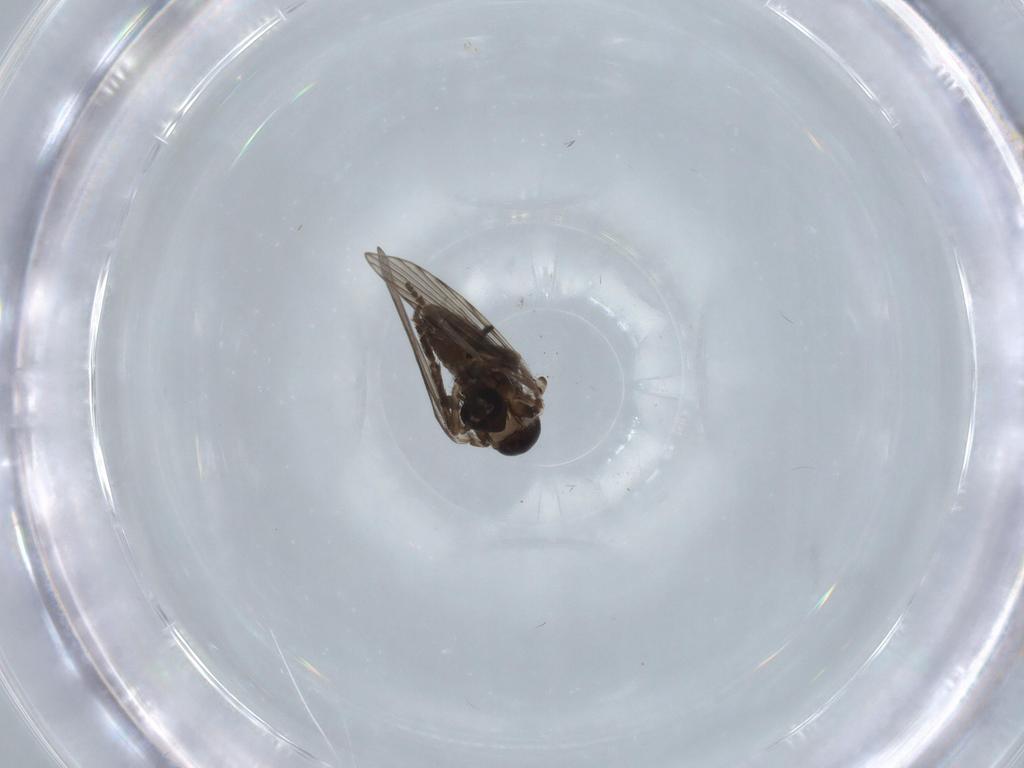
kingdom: Animalia
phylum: Arthropoda
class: Insecta
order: Diptera
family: Psychodidae
